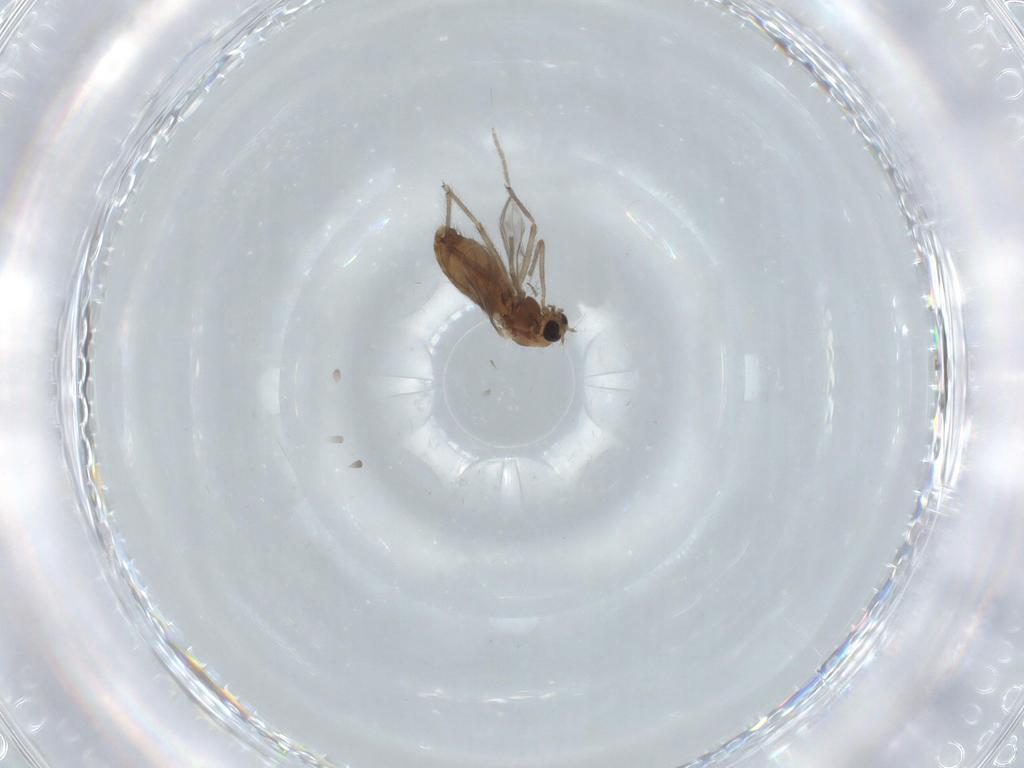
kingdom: Animalia
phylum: Arthropoda
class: Insecta
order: Diptera
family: Chironomidae
